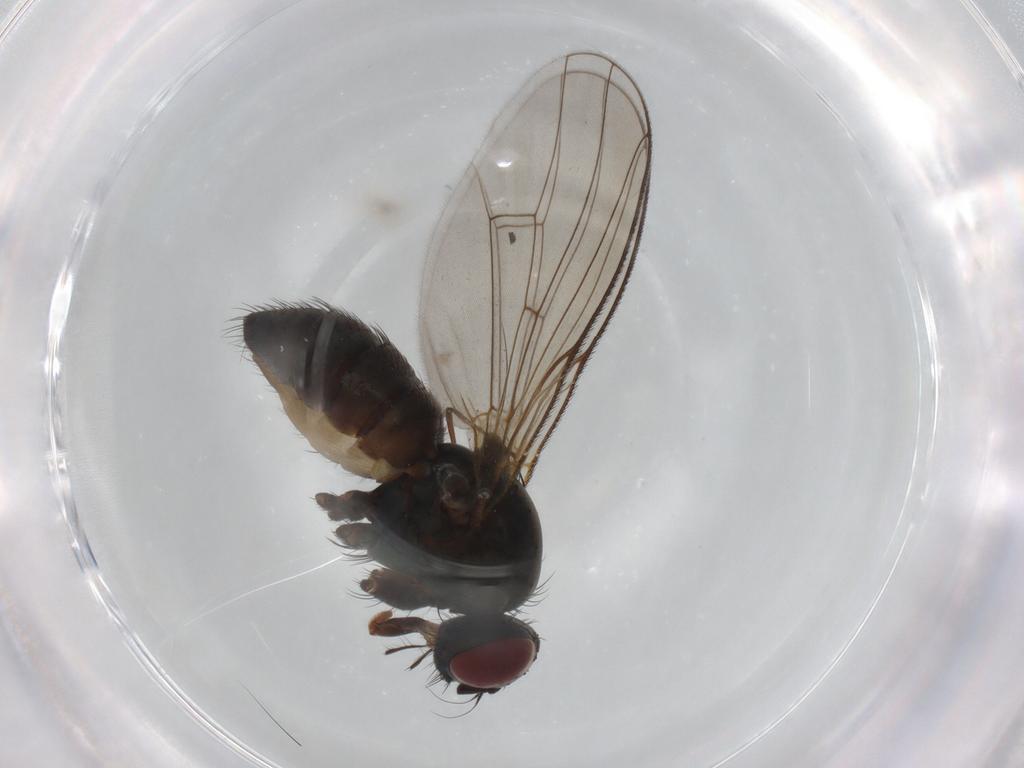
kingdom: Animalia
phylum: Arthropoda
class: Insecta
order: Diptera
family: Muscidae
